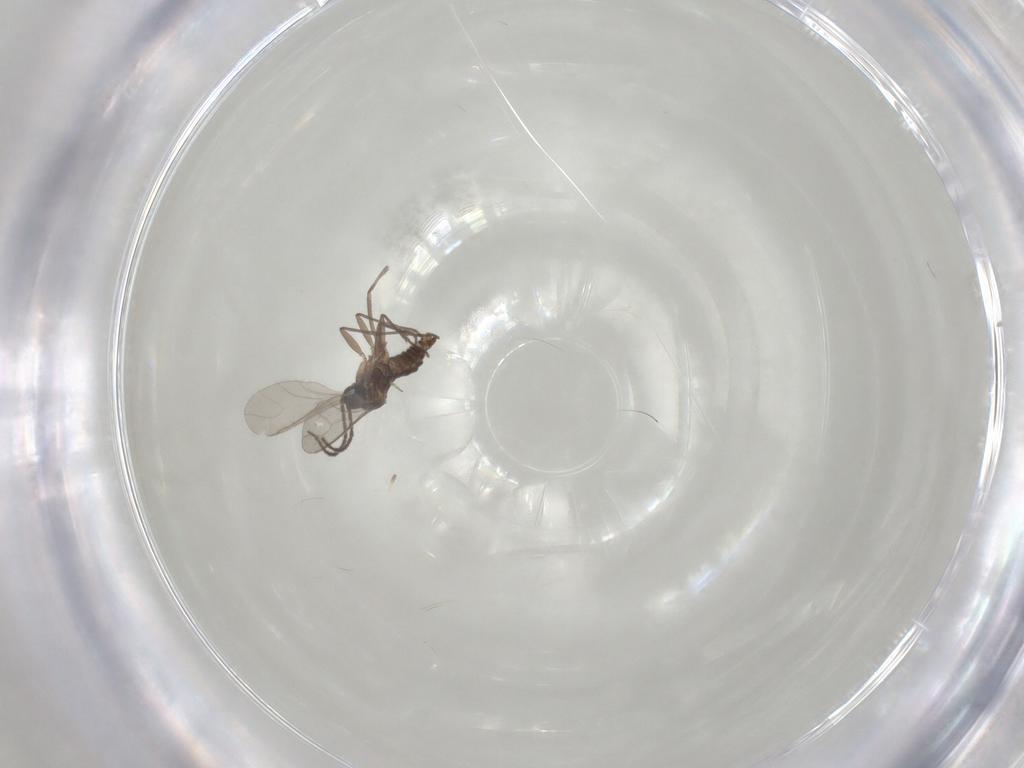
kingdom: Animalia
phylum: Arthropoda
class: Insecta
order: Diptera
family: Sciaridae
